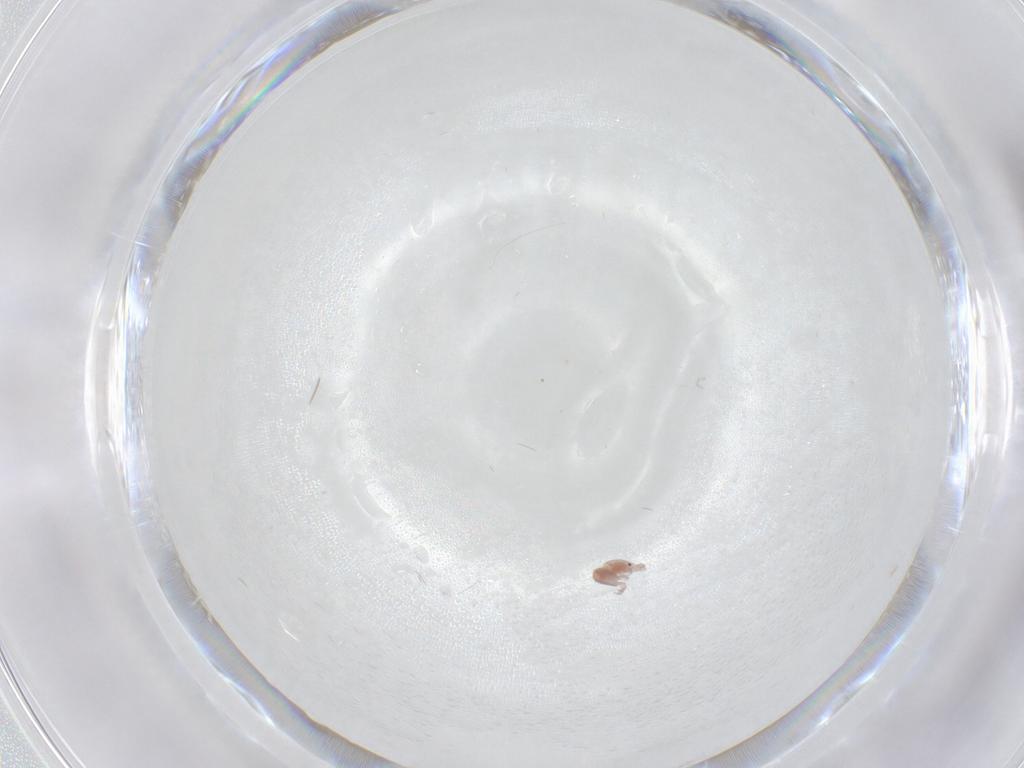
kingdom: Animalia
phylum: Arthropoda
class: Arachnida
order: Trombidiformes
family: Pionidae
